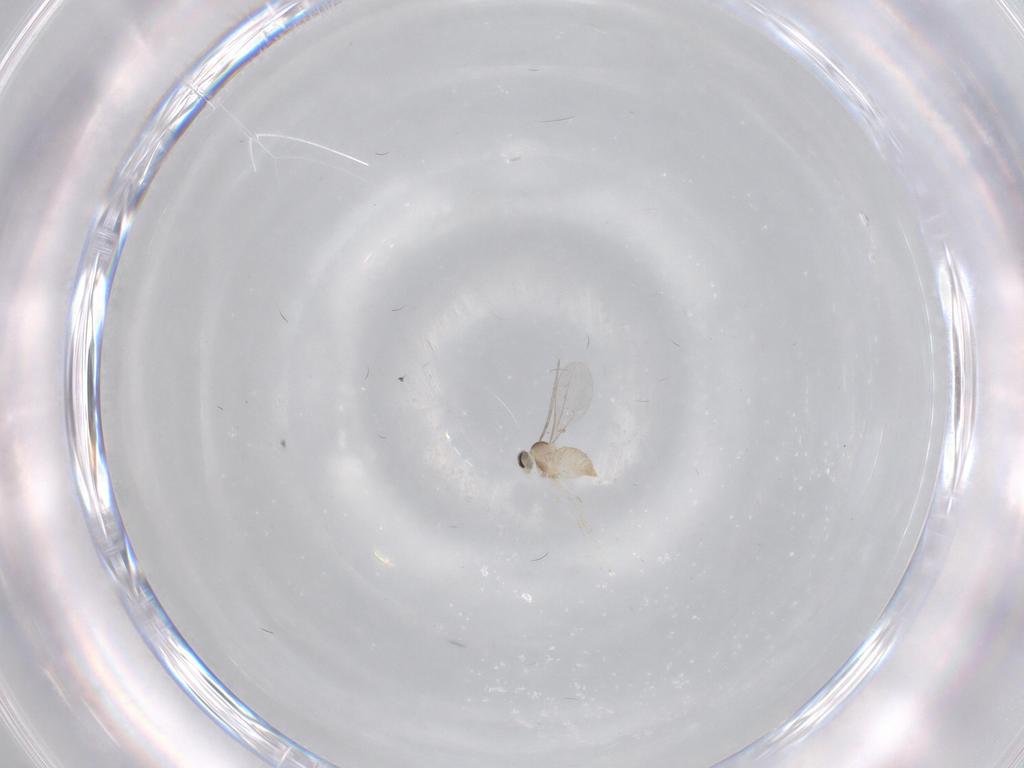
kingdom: Animalia
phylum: Arthropoda
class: Insecta
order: Diptera
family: Cecidomyiidae
